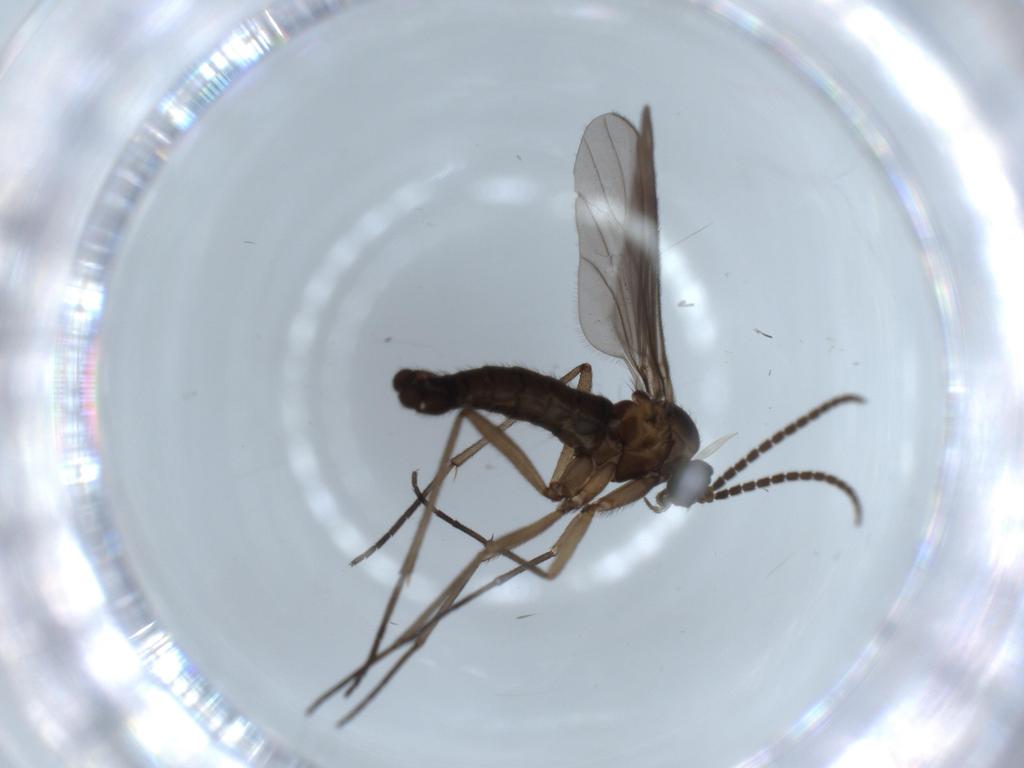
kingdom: Animalia
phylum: Arthropoda
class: Insecta
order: Diptera
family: Sciaridae
